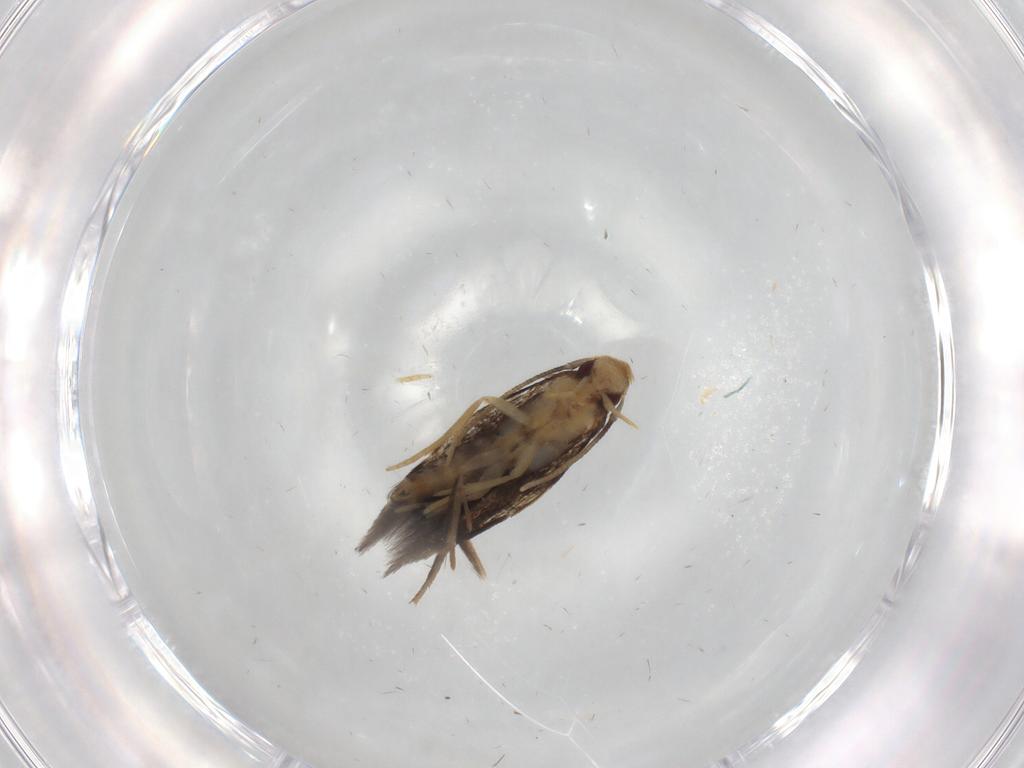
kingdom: Animalia
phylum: Arthropoda
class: Insecta
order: Lepidoptera
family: Gelechiidae
